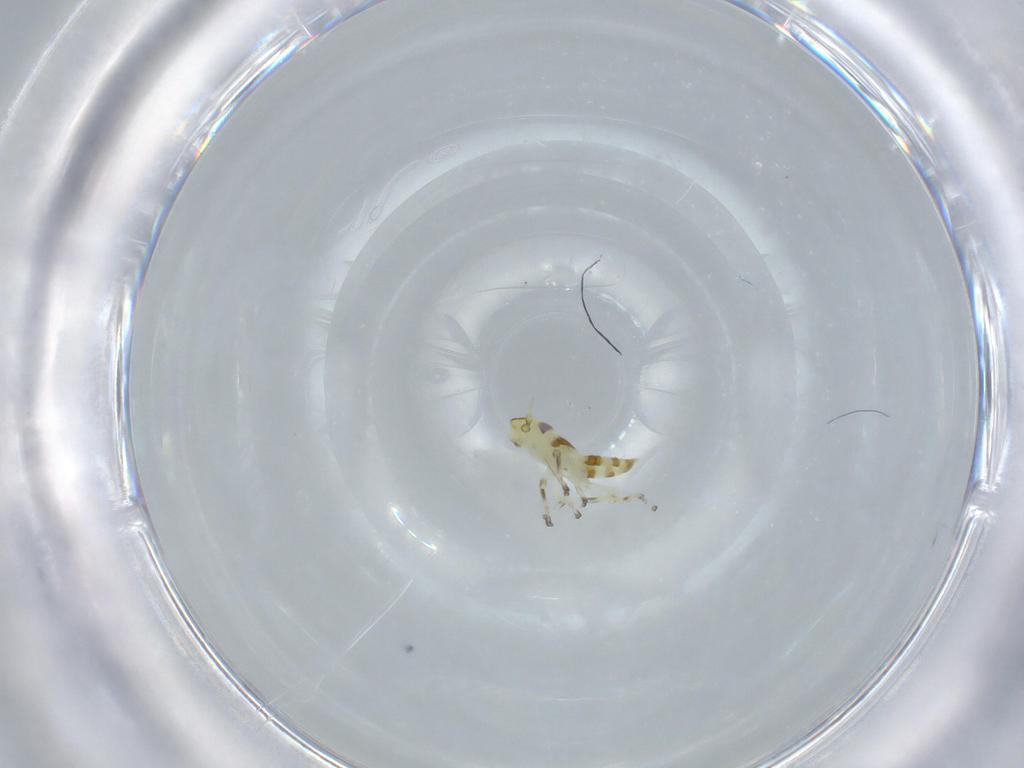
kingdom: Animalia
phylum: Arthropoda
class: Insecta
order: Hemiptera
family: Cicadellidae
